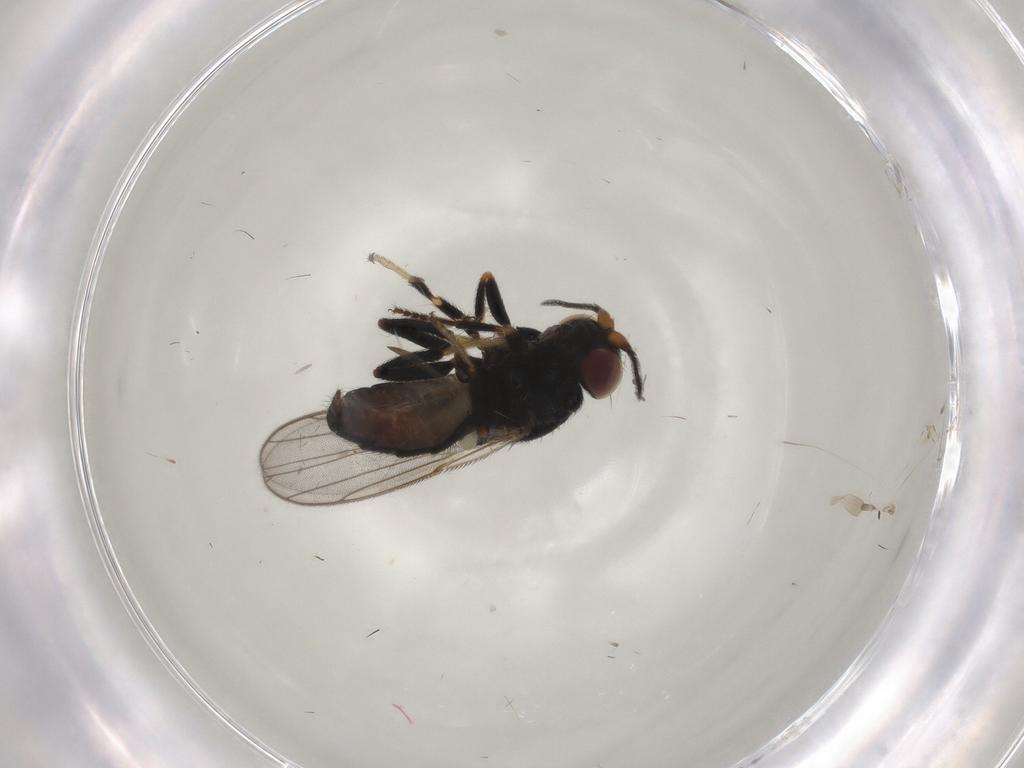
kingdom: Animalia
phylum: Arthropoda
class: Insecta
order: Diptera
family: Chloropidae
